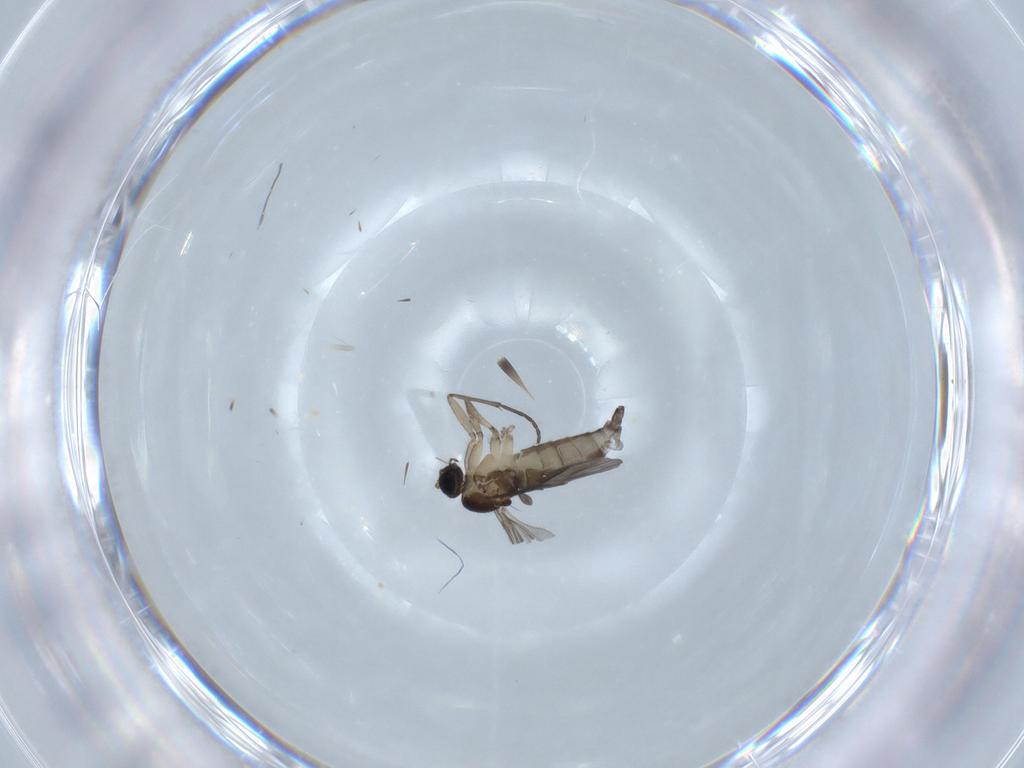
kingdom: Animalia
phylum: Arthropoda
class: Insecta
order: Diptera
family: Sciaridae
